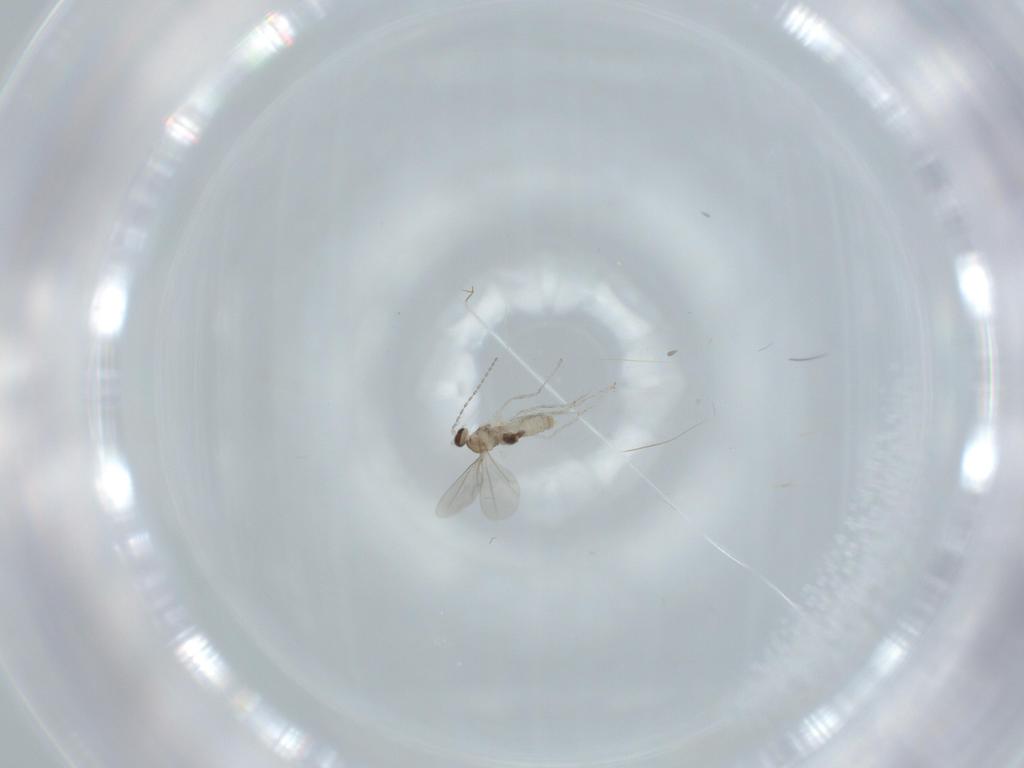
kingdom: Animalia
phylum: Arthropoda
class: Insecta
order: Diptera
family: Cecidomyiidae
